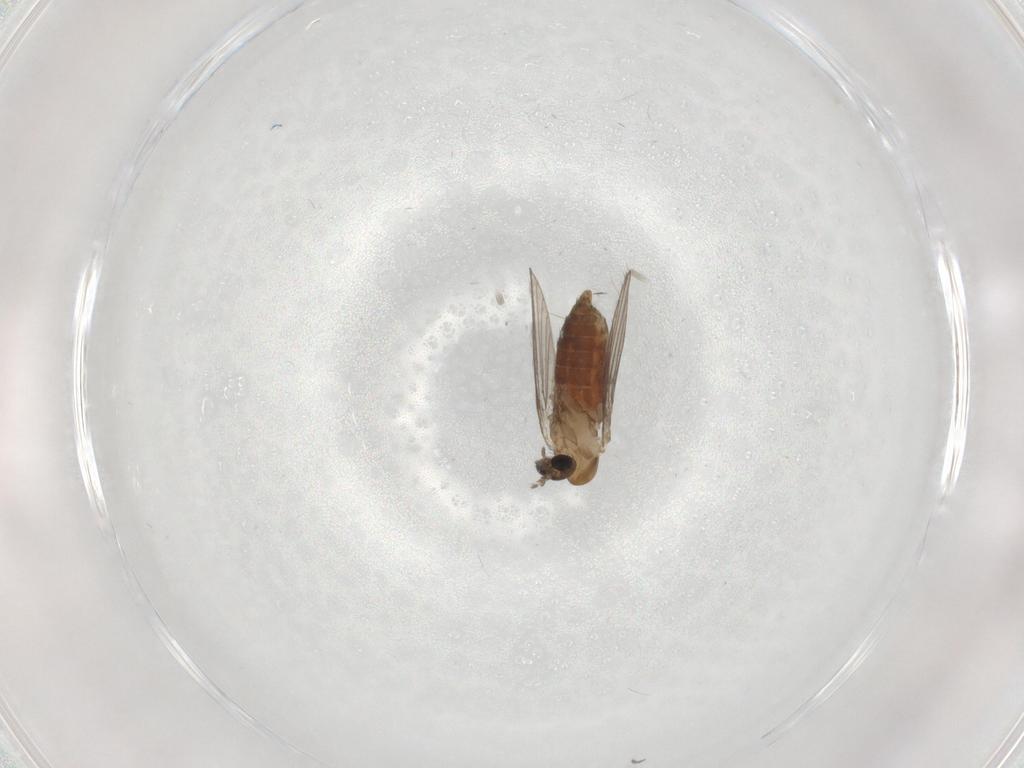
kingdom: Animalia
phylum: Arthropoda
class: Insecta
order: Diptera
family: Psychodidae
